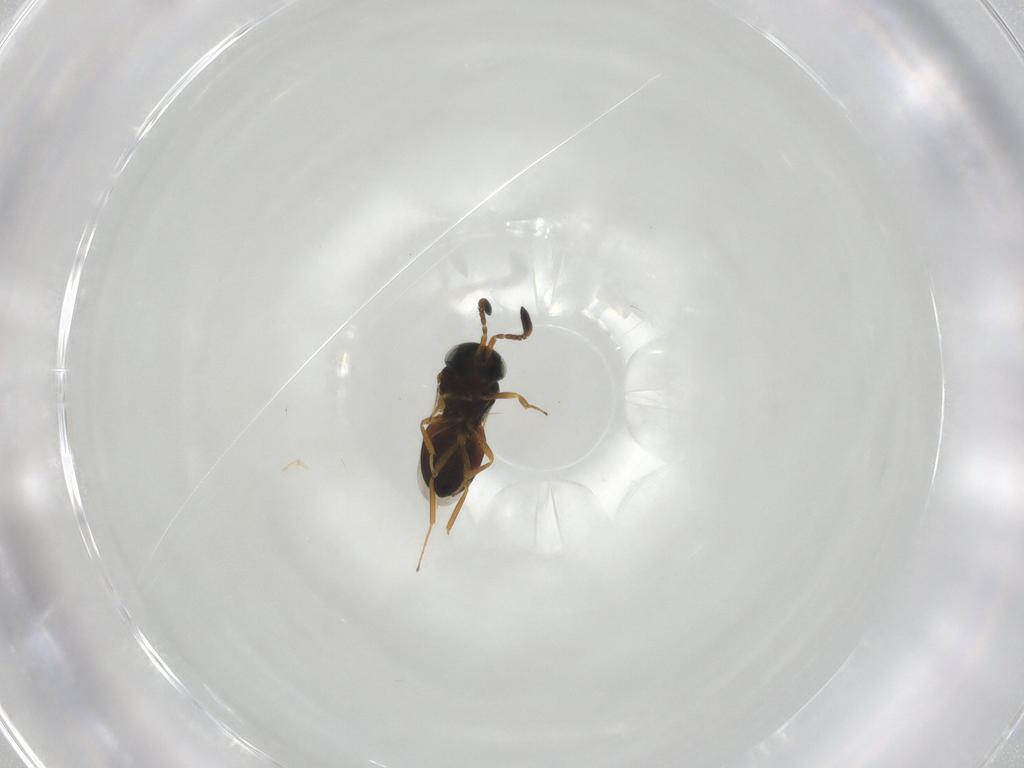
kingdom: Animalia
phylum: Arthropoda
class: Insecta
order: Hymenoptera
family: Scelionidae
